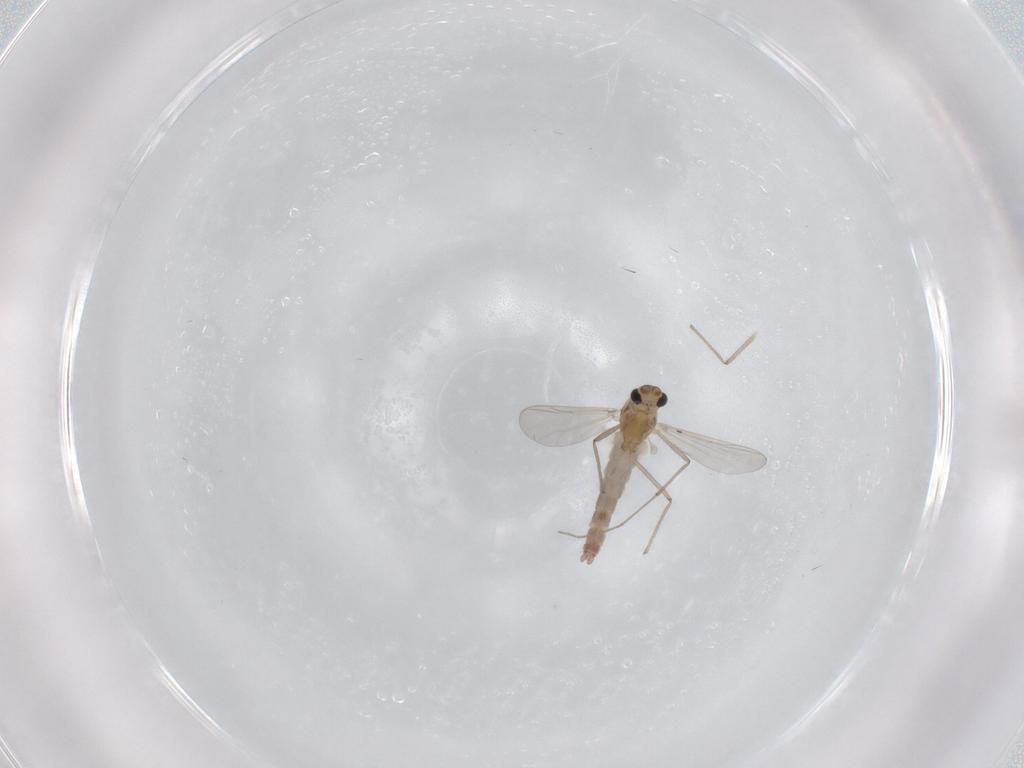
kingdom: Animalia
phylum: Arthropoda
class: Insecta
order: Diptera
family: Chironomidae
